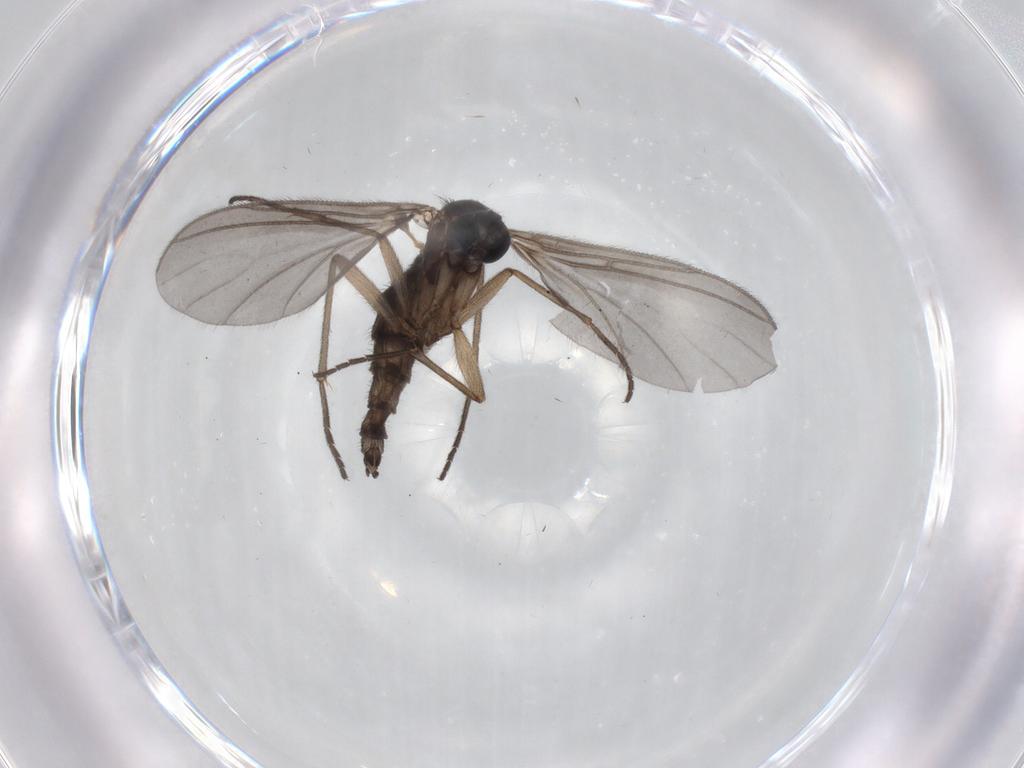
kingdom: Animalia
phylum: Arthropoda
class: Insecta
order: Diptera
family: Sciaridae
